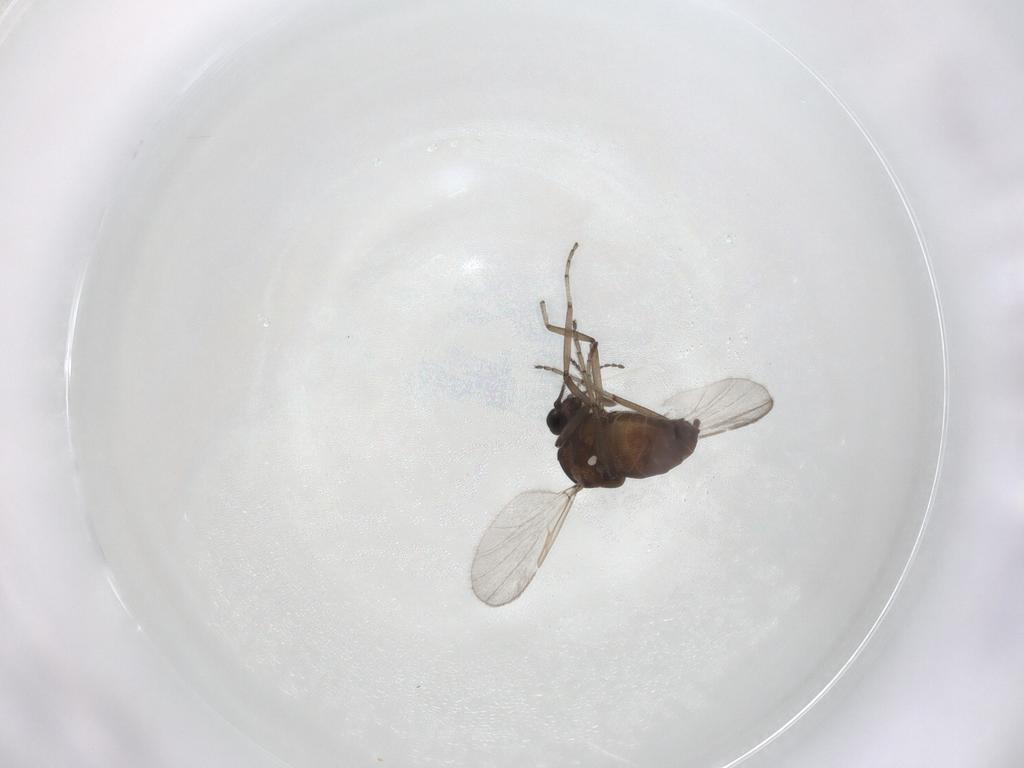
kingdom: Animalia
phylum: Arthropoda
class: Insecta
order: Diptera
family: Ceratopogonidae
